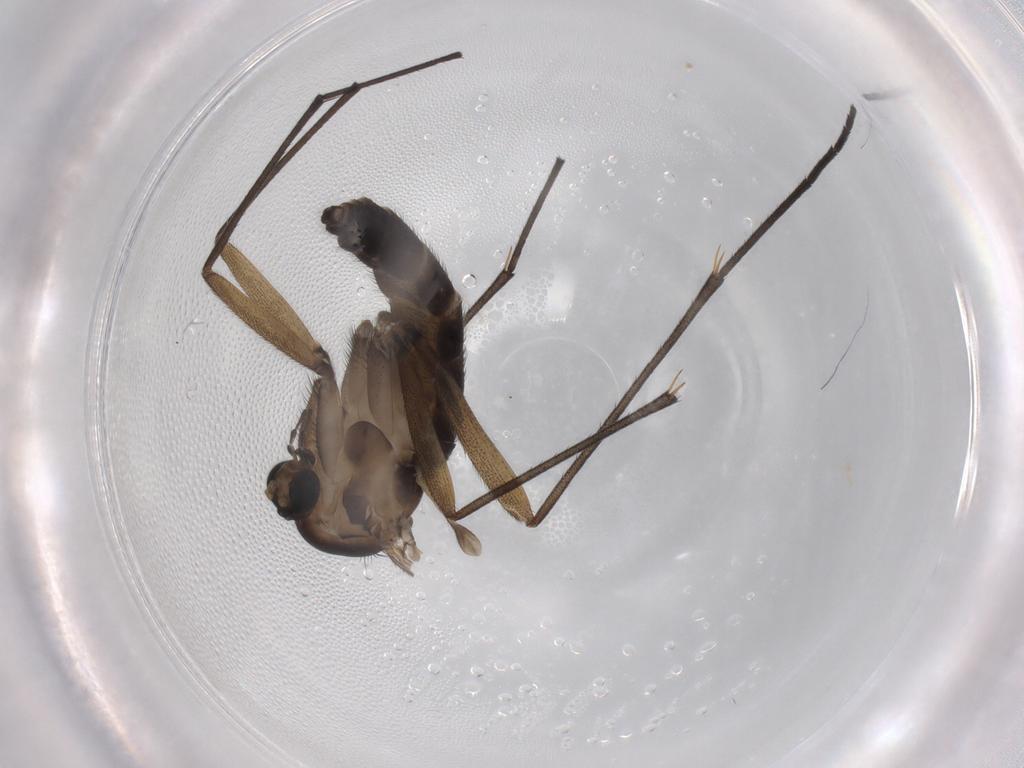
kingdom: Animalia
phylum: Arthropoda
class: Insecta
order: Diptera
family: Sciaridae
